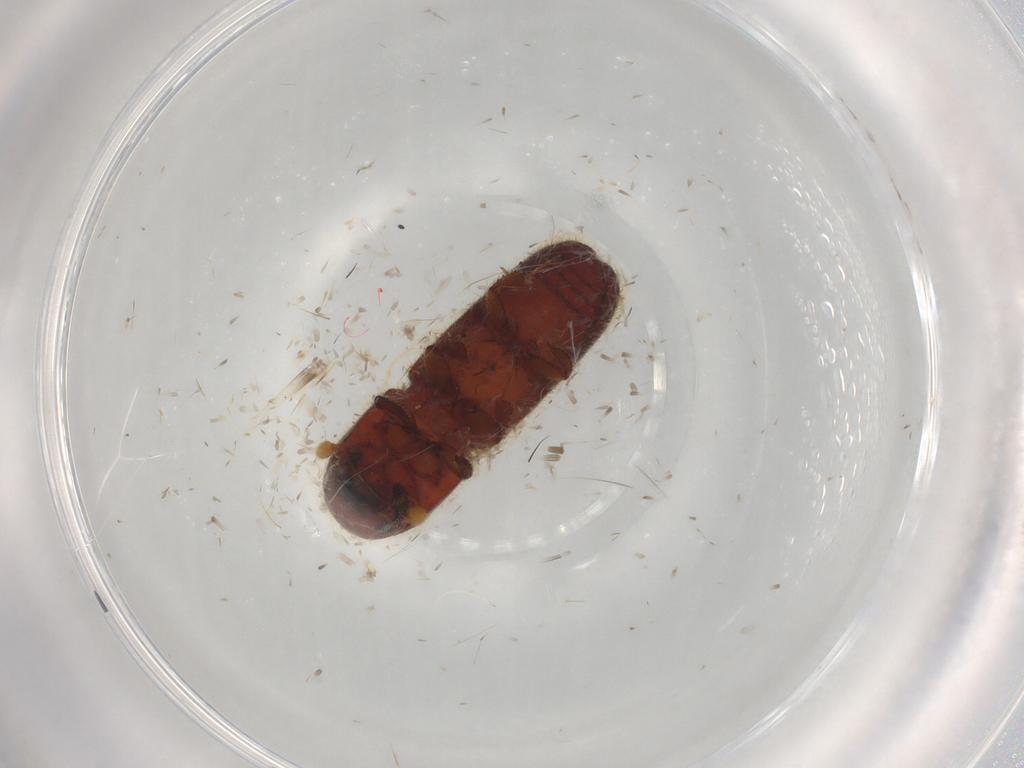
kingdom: Animalia
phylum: Arthropoda
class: Insecta
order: Coleoptera
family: Curculionidae
